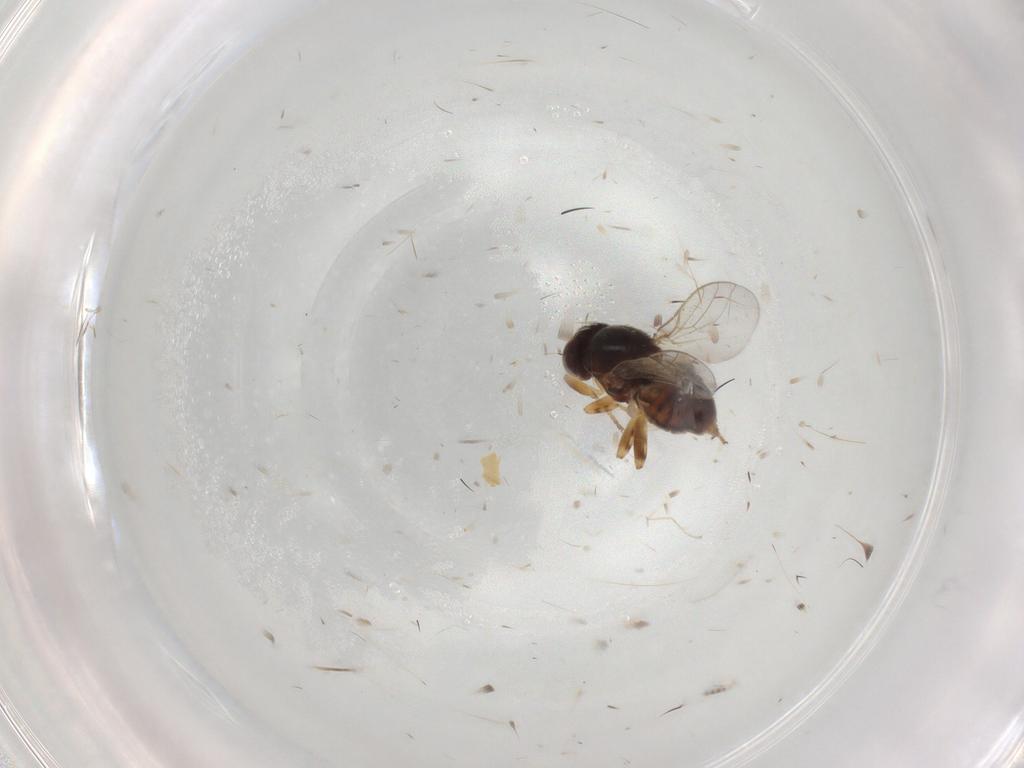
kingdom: Animalia
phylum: Arthropoda
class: Insecta
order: Diptera
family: Chloropidae
